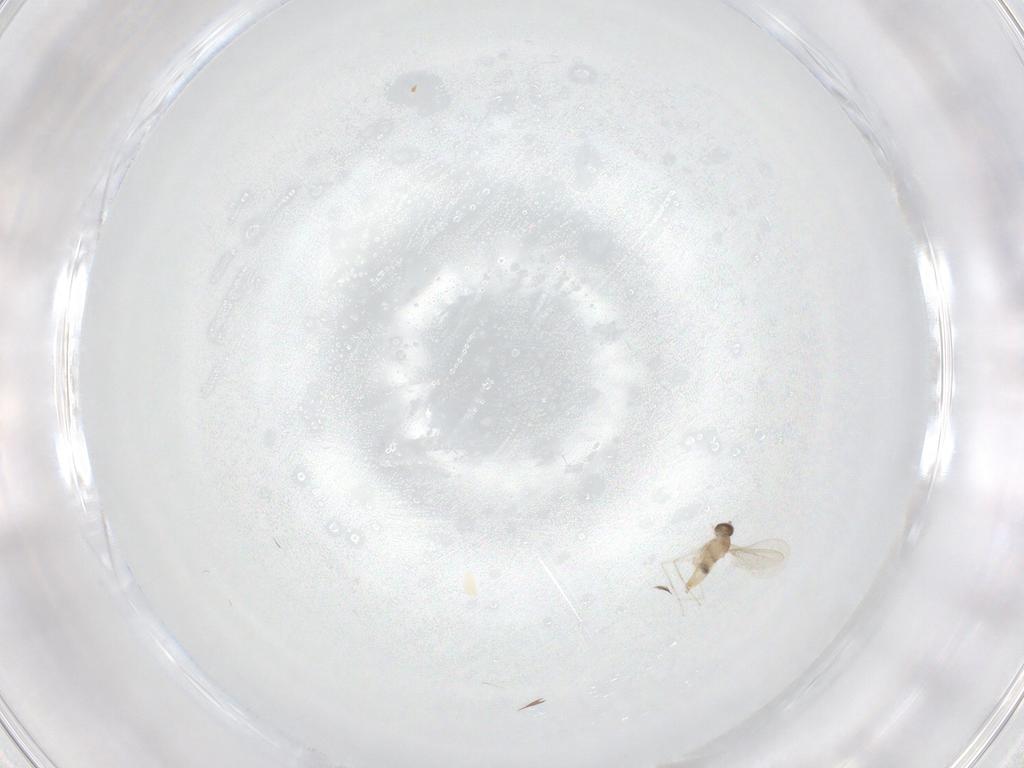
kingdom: Animalia
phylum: Arthropoda
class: Insecta
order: Diptera
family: Cecidomyiidae
